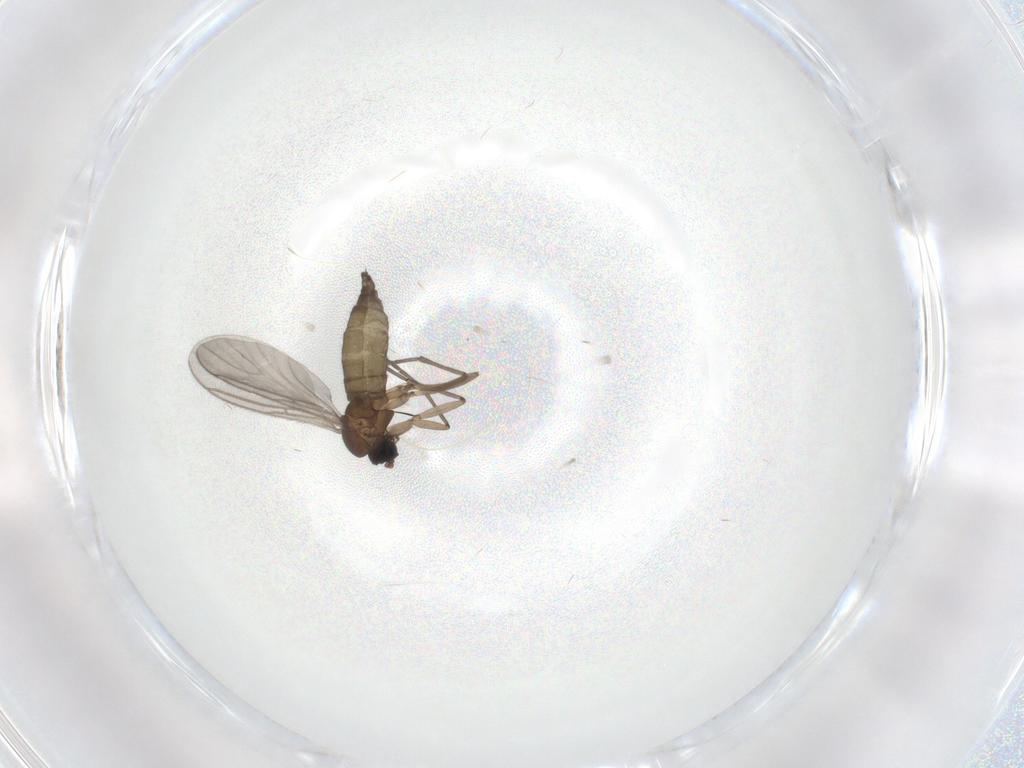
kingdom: Animalia
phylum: Arthropoda
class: Insecta
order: Diptera
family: Sciaridae
